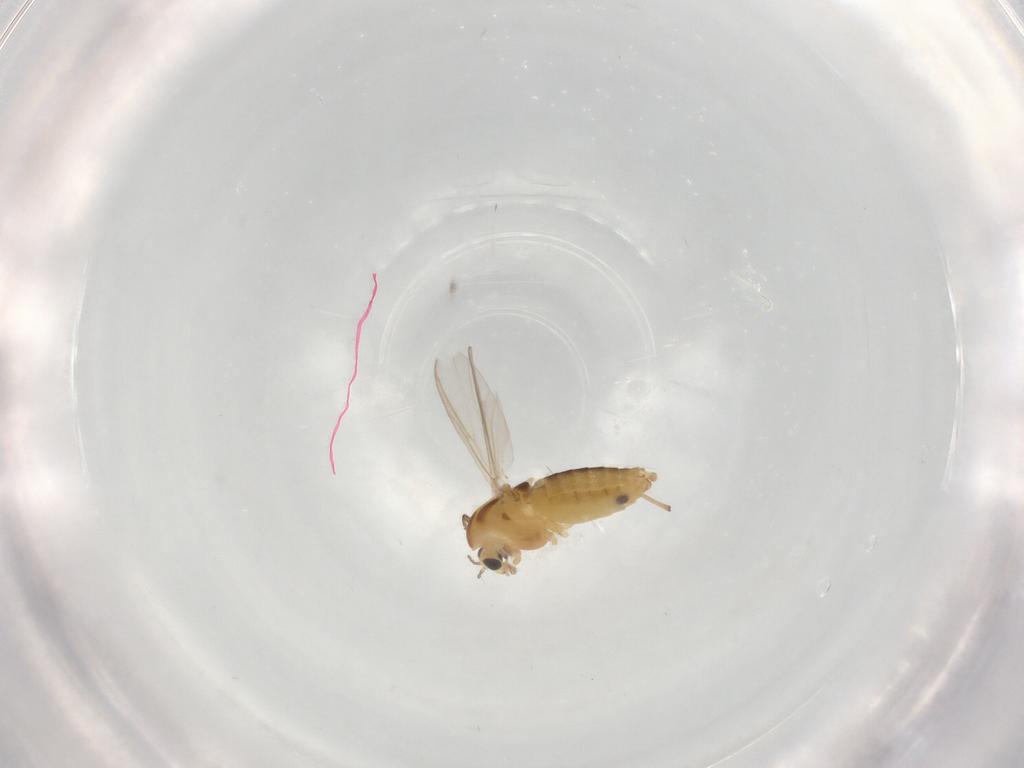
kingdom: Animalia
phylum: Arthropoda
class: Insecta
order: Diptera
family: Chironomidae
